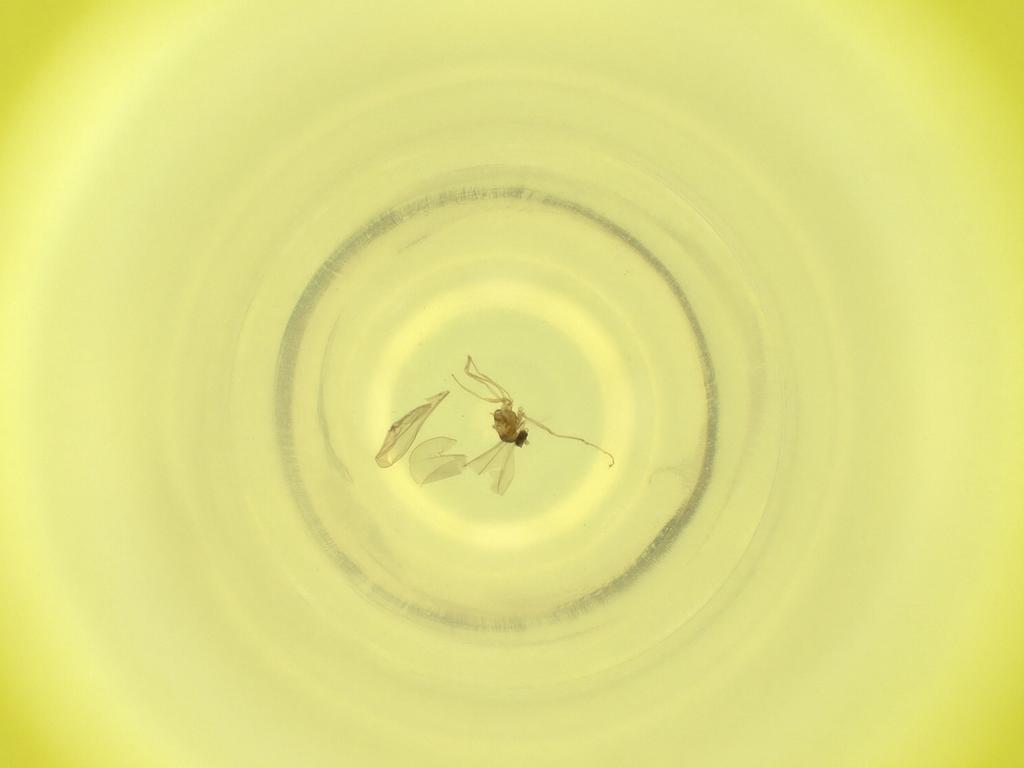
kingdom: Animalia
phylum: Arthropoda
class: Insecta
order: Diptera
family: Cecidomyiidae
